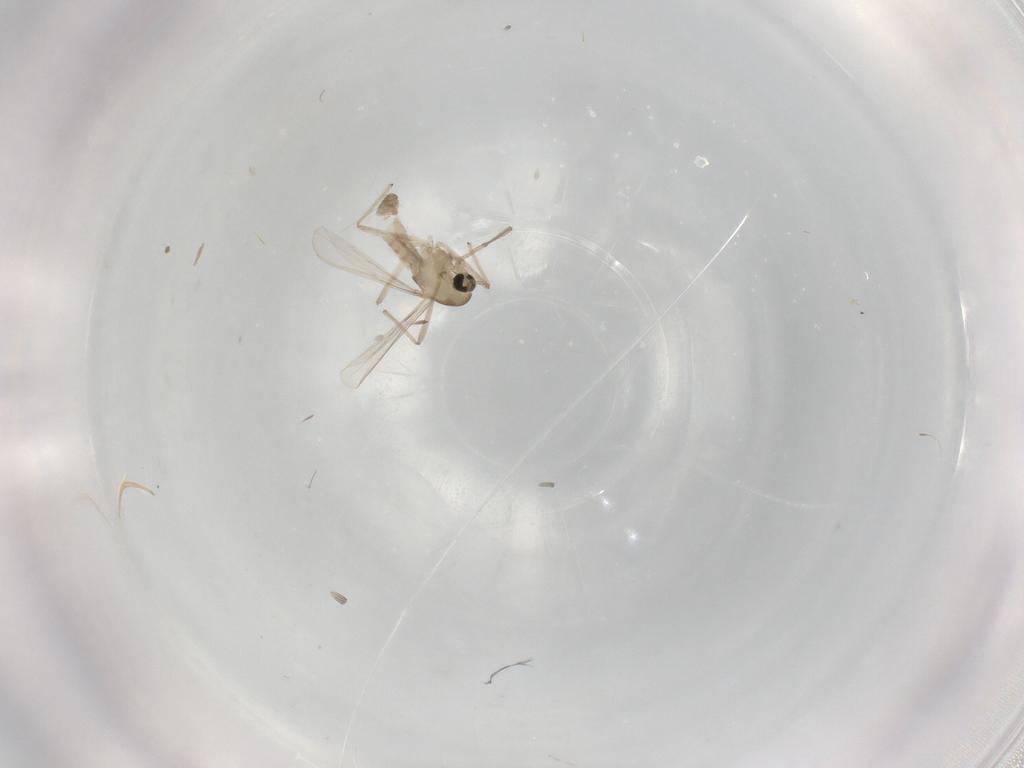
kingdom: Animalia
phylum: Arthropoda
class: Insecta
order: Diptera
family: Chironomidae
